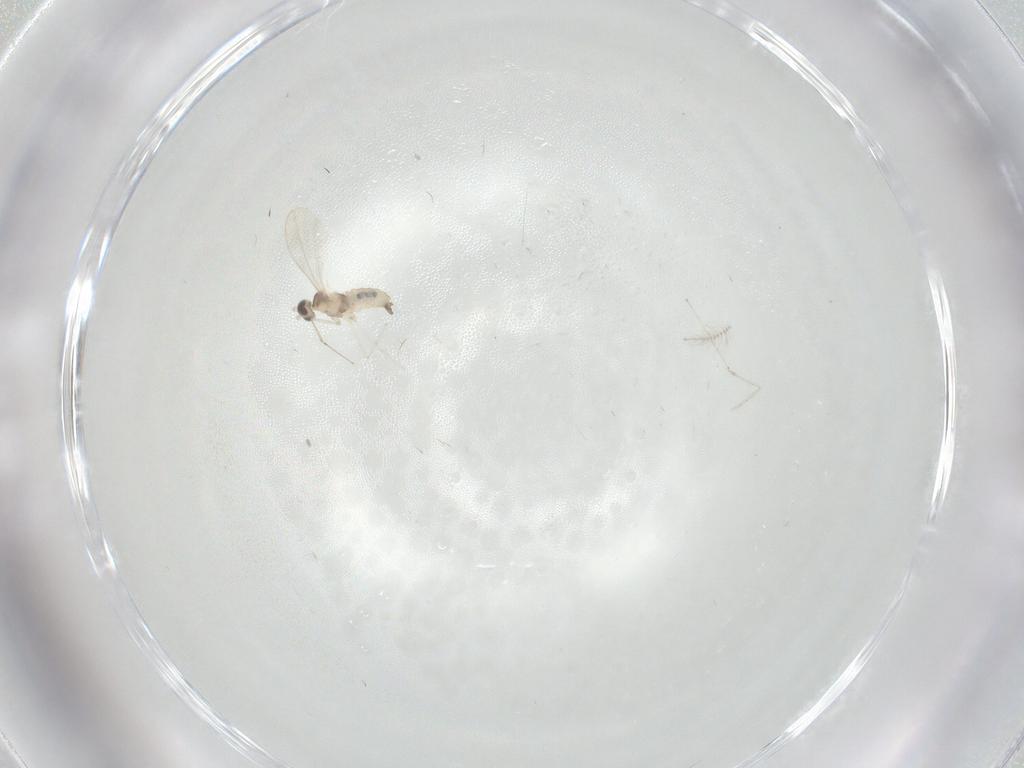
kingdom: Animalia
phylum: Arthropoda
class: Insecta
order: Diptera
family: Cecidomyiidae
